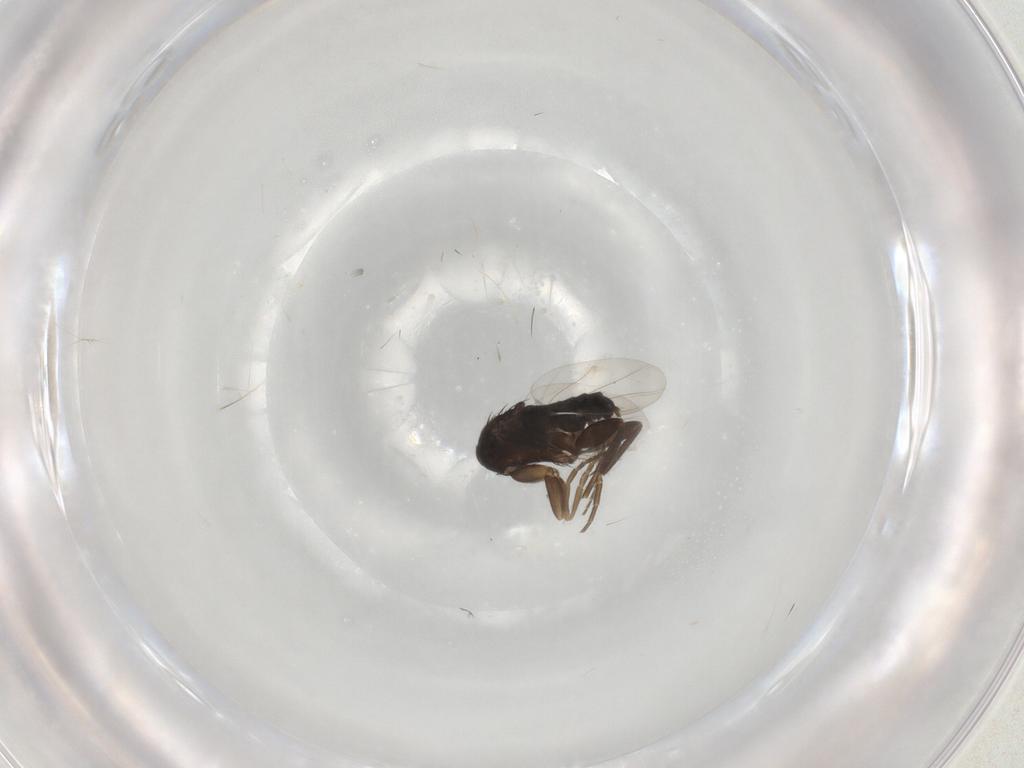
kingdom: Animalia
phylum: Arthropoda
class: Insecta
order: Diptera
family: Phoridae
